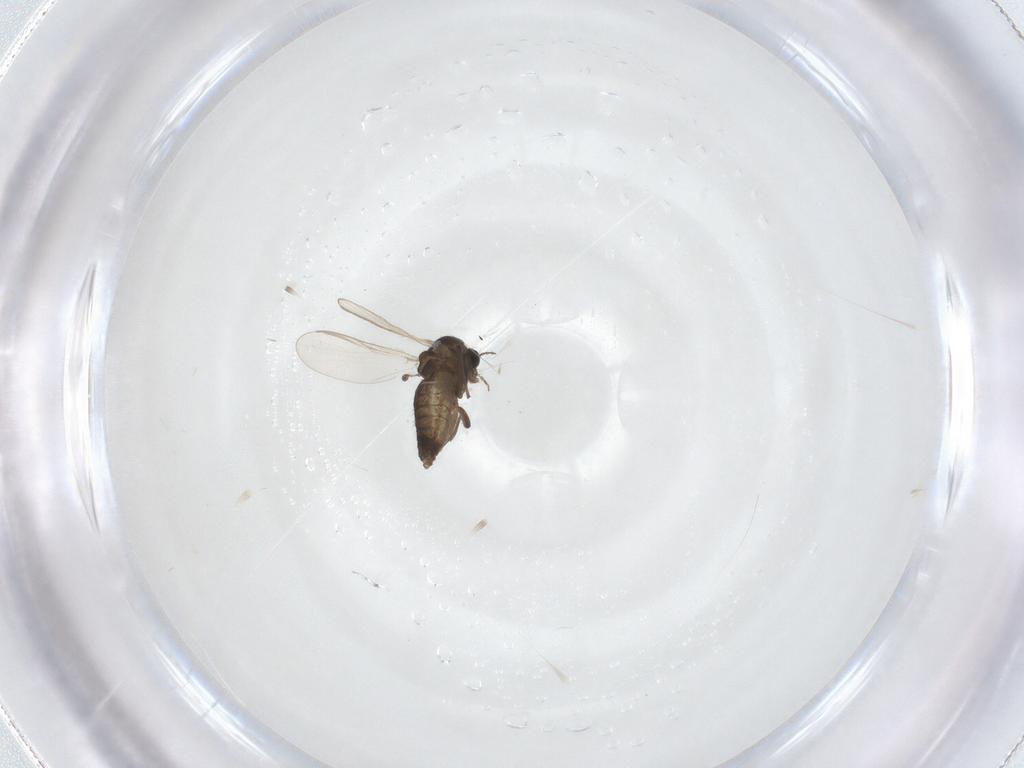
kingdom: Animalia
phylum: Arthropoda
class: Insecta
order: Diptera
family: Chironomidae
